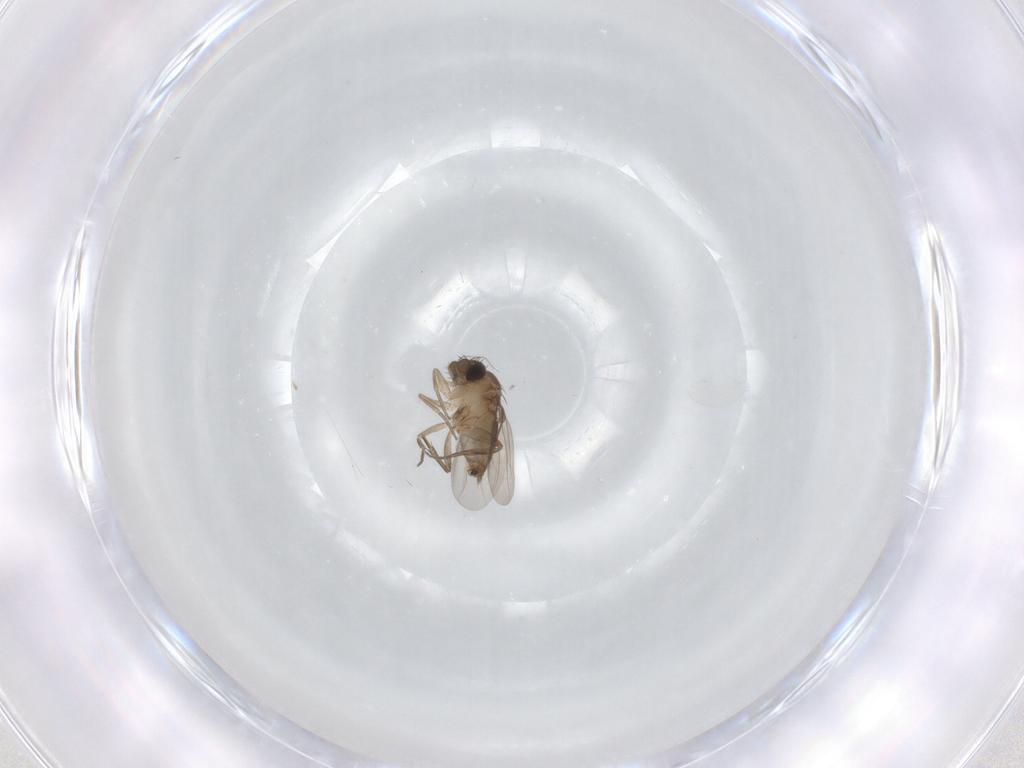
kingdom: Animalia
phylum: Arthropoda
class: Insecta
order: Diptera
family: Phoridae
